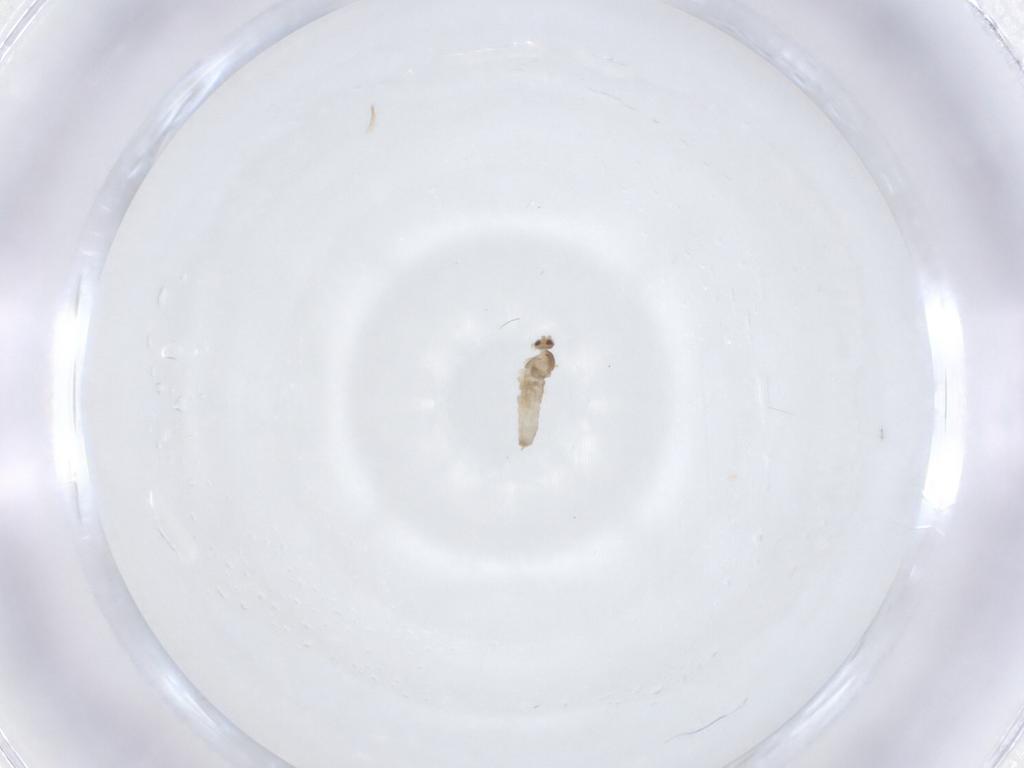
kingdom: Animalia
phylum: Arthropoda
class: Insecta
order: Diptera
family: Cecidomyiidae
